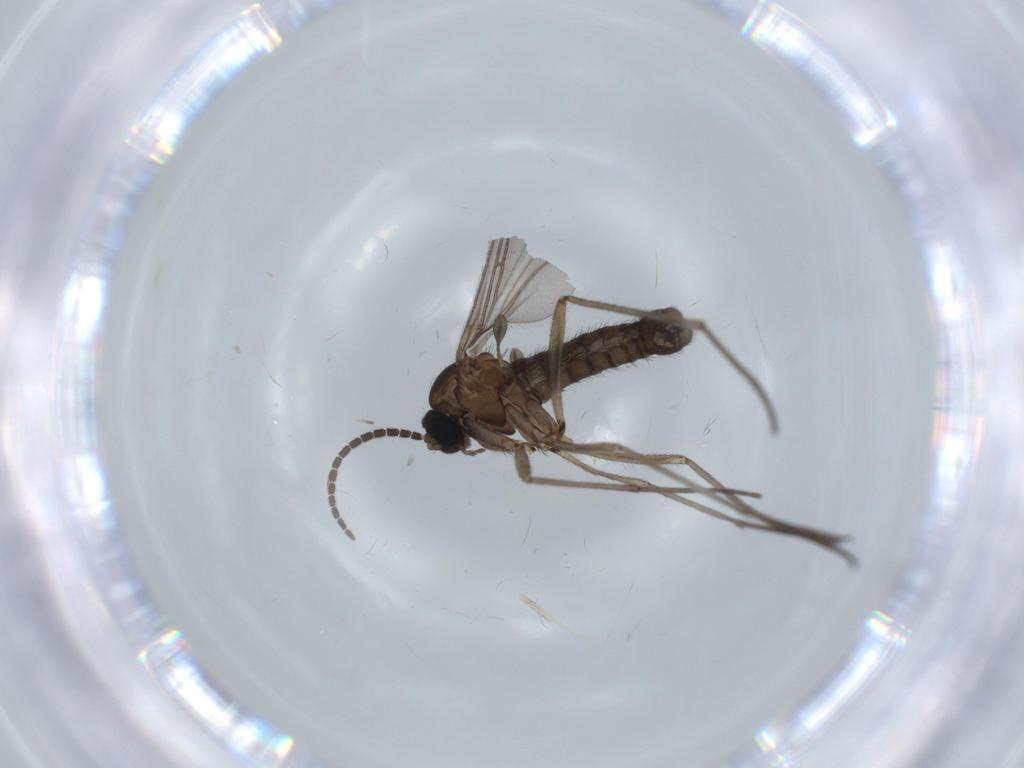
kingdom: Animalia
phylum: Arthropoda
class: Insecta
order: Diptera
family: Sciaridae
